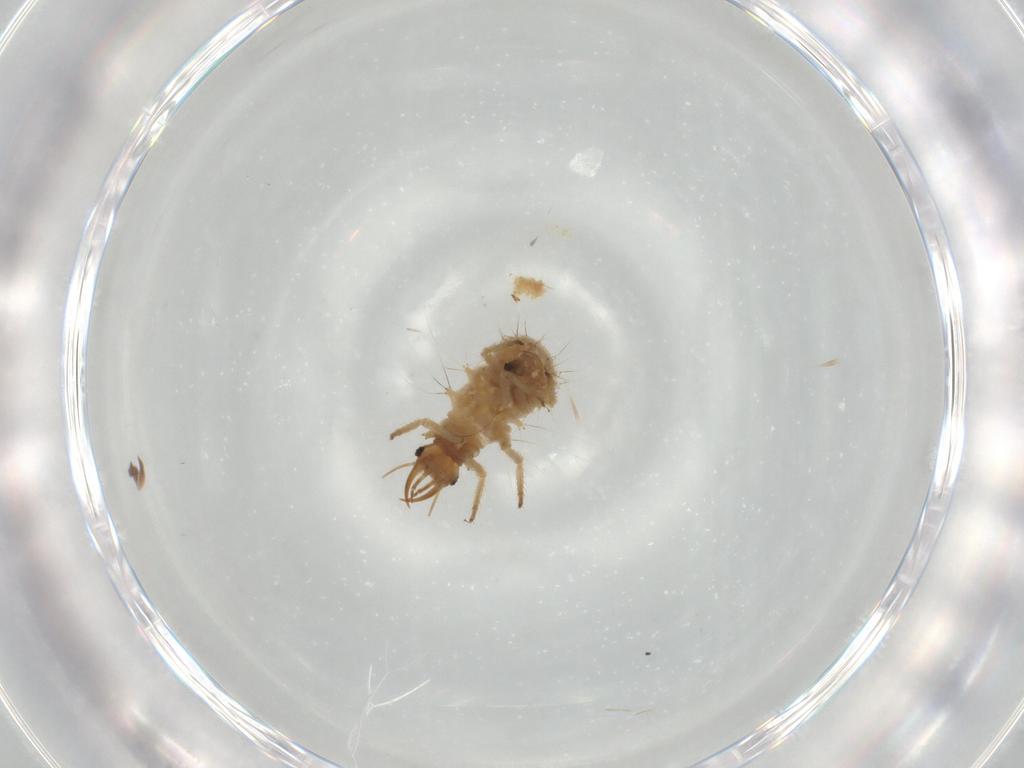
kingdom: Animalia
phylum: Arthropoda
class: Insecta
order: Neuroptera
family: Chrysopidae
